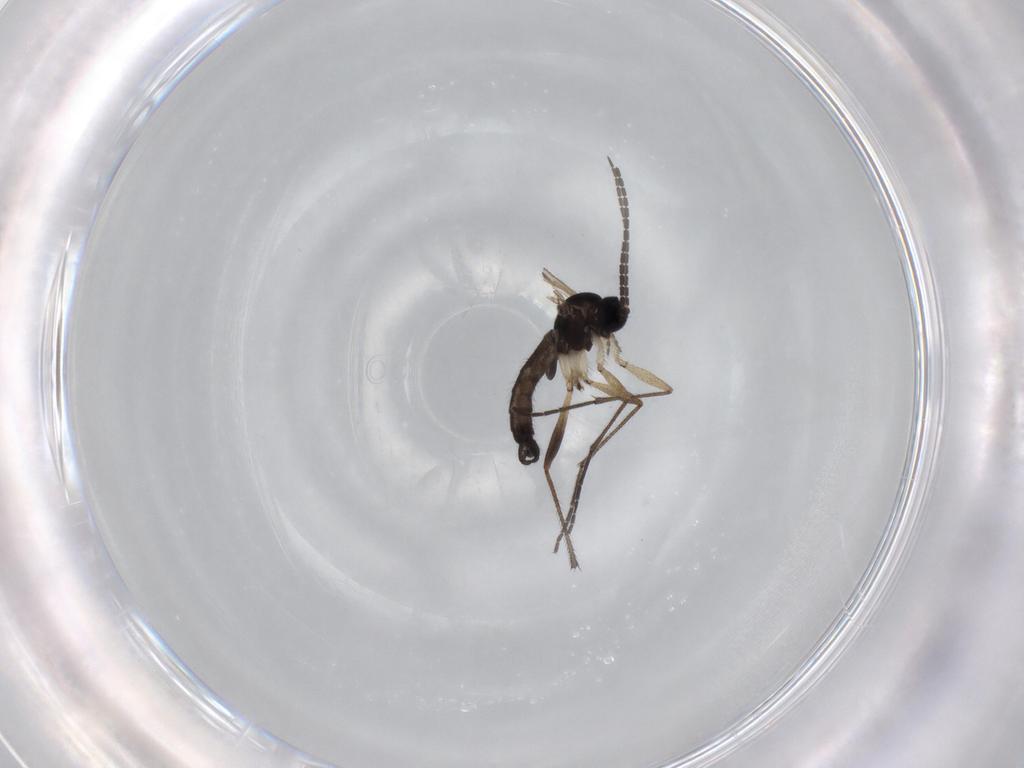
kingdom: Animalia
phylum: Arthropoda
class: Insecta
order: Diptera
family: Sciaridae
